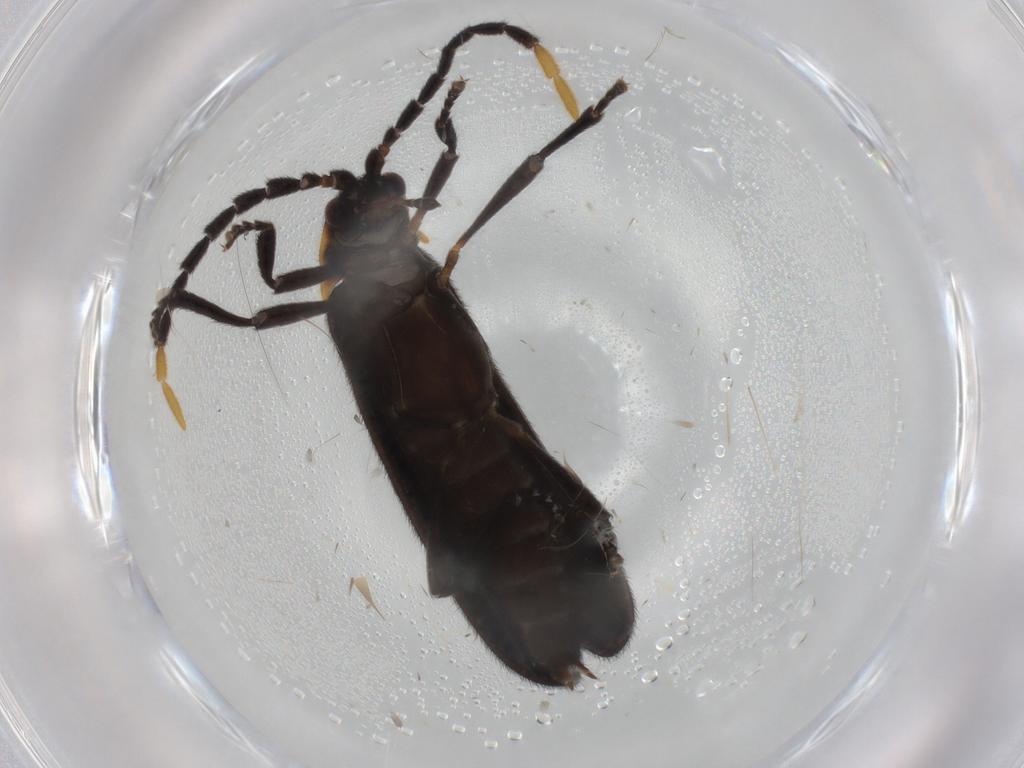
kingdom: Animalia
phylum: Arthropoda
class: Insecta
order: Coleoptera
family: Lycidae
